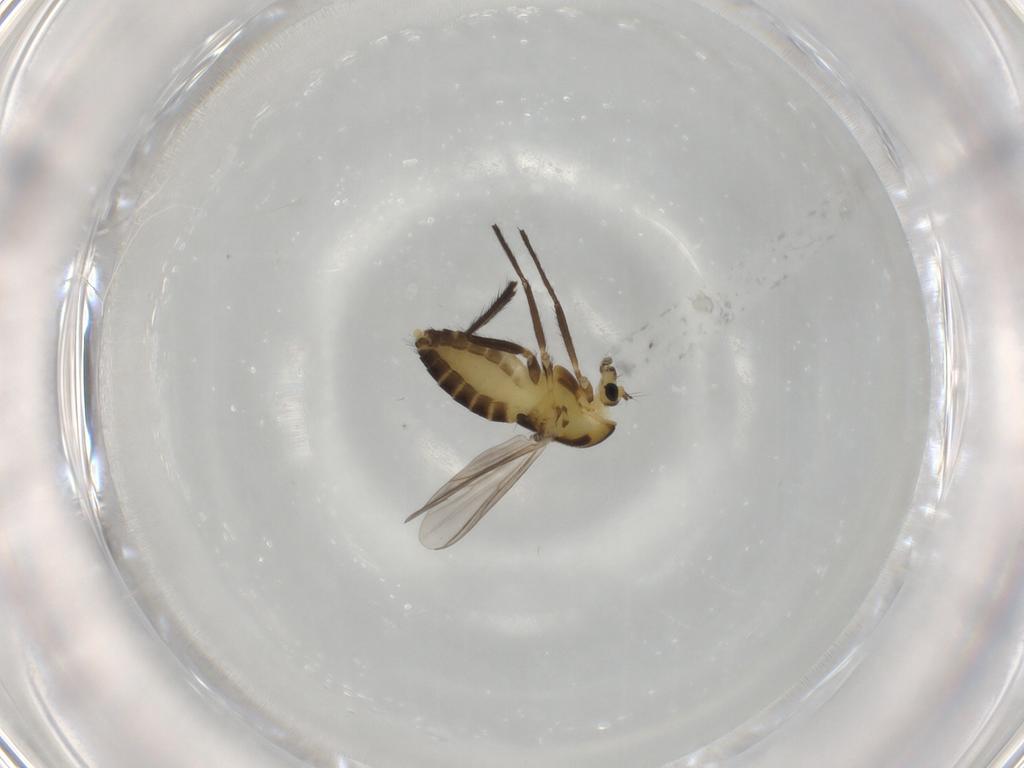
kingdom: Animalia
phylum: Arthropoda
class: Insecta
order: Diptera
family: Chironomidae
